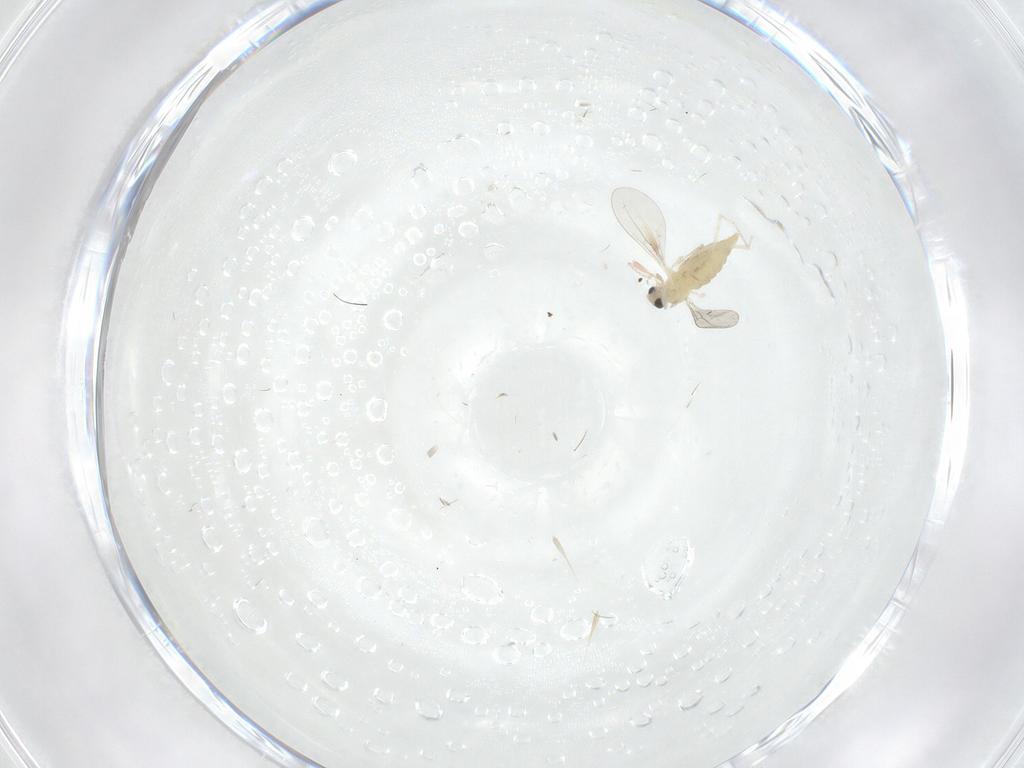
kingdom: Animalia
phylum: Arthropoda
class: Insecta
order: Diptera
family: Cecidomyiidae
